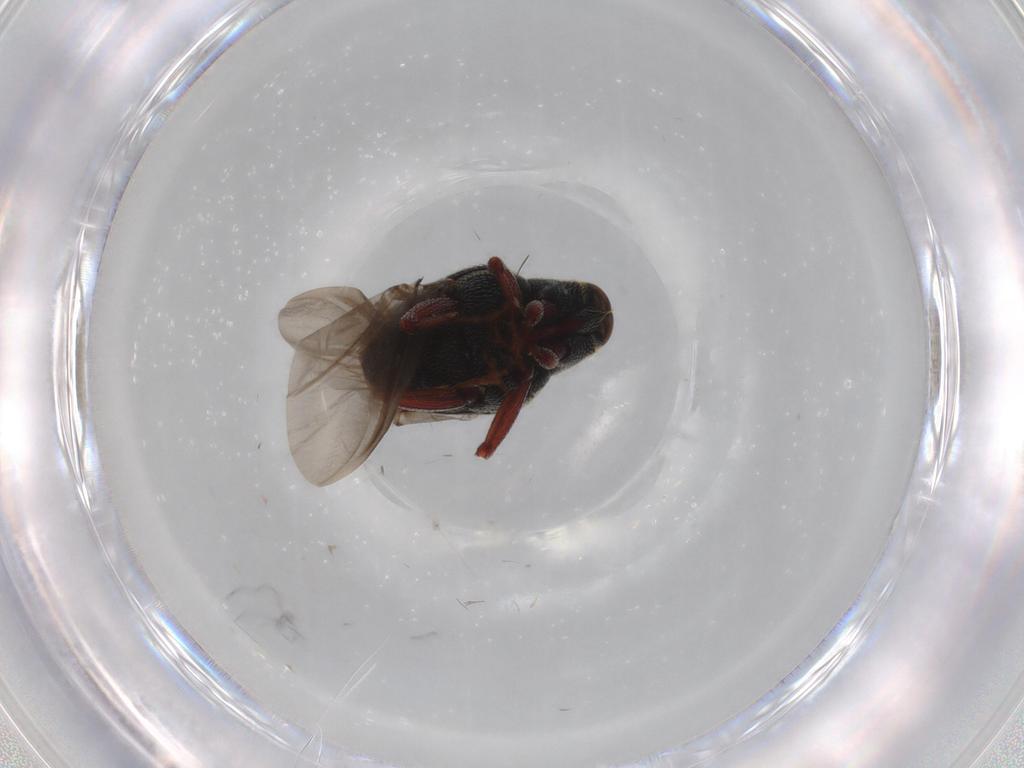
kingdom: Animalia
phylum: Arthropoda
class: Insecta
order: Coleoptera
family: Curculionidae
